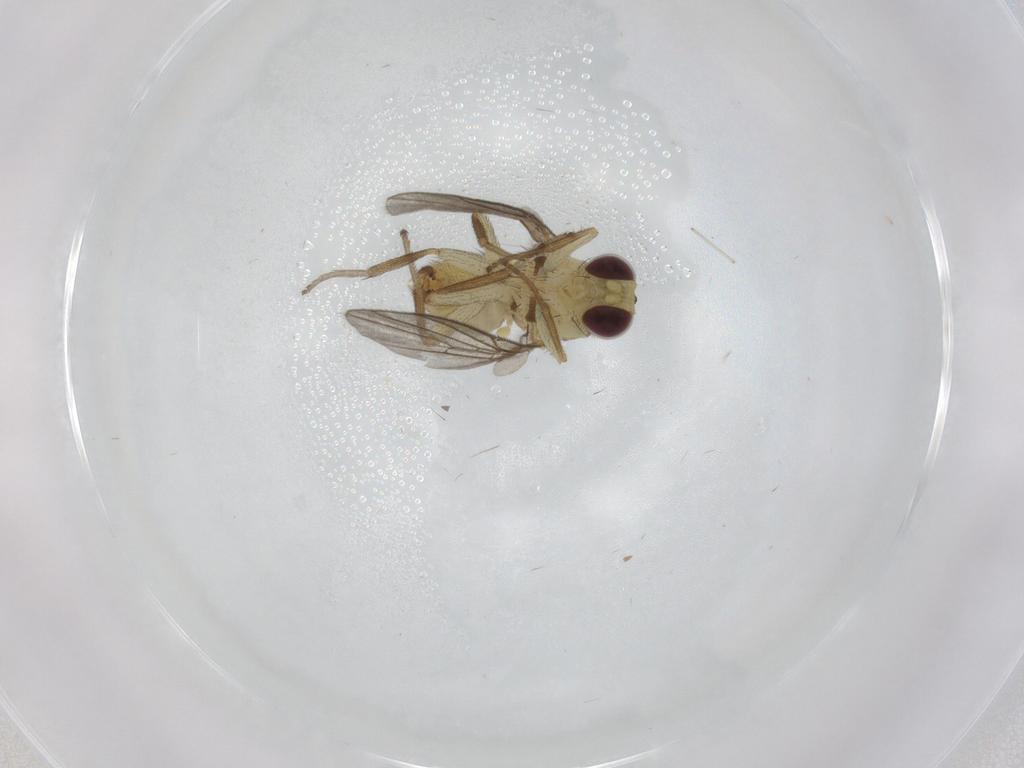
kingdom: Animalia
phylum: Arthropoda
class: Insecta
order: Diptera
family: Agromyzidae
